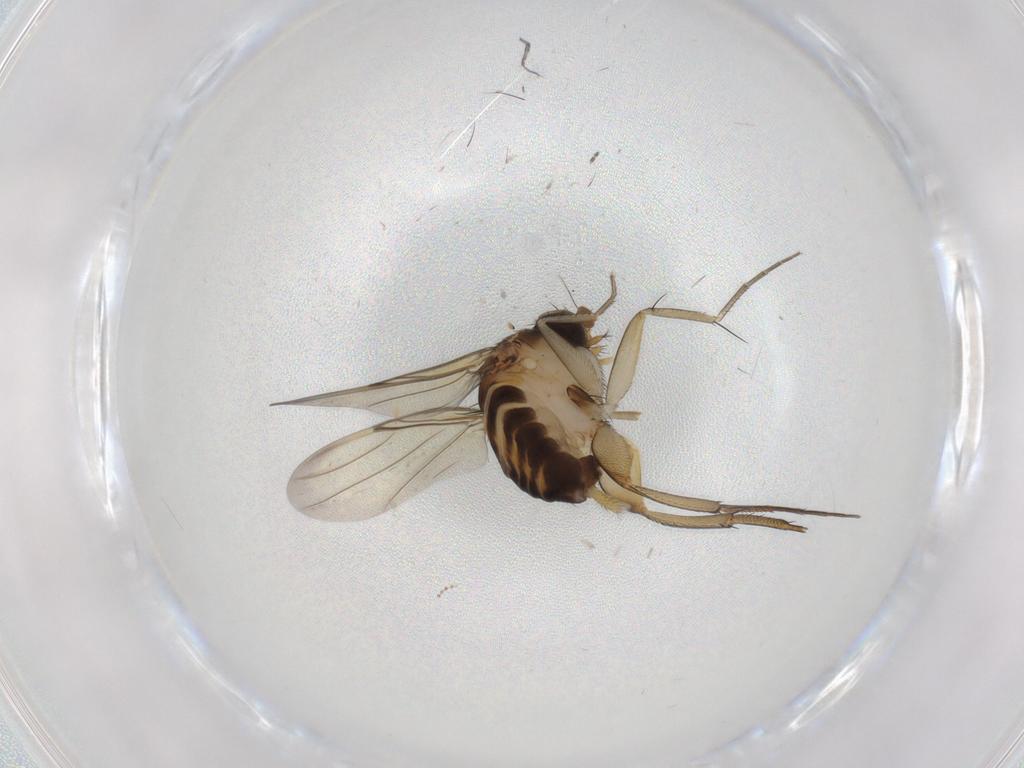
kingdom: Animalia
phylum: Arthropoda
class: Insecta
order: Diptera
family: Phoridae
